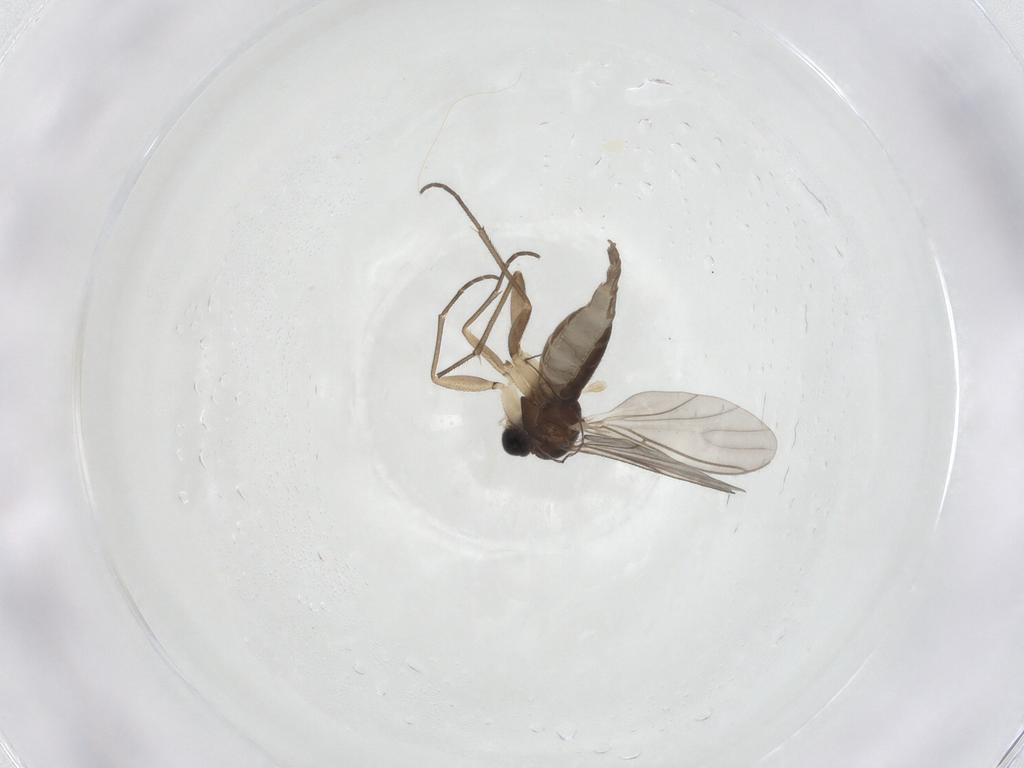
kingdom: Animalia
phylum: Arthropoda
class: Insecta
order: Diptera
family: Sciaridae
